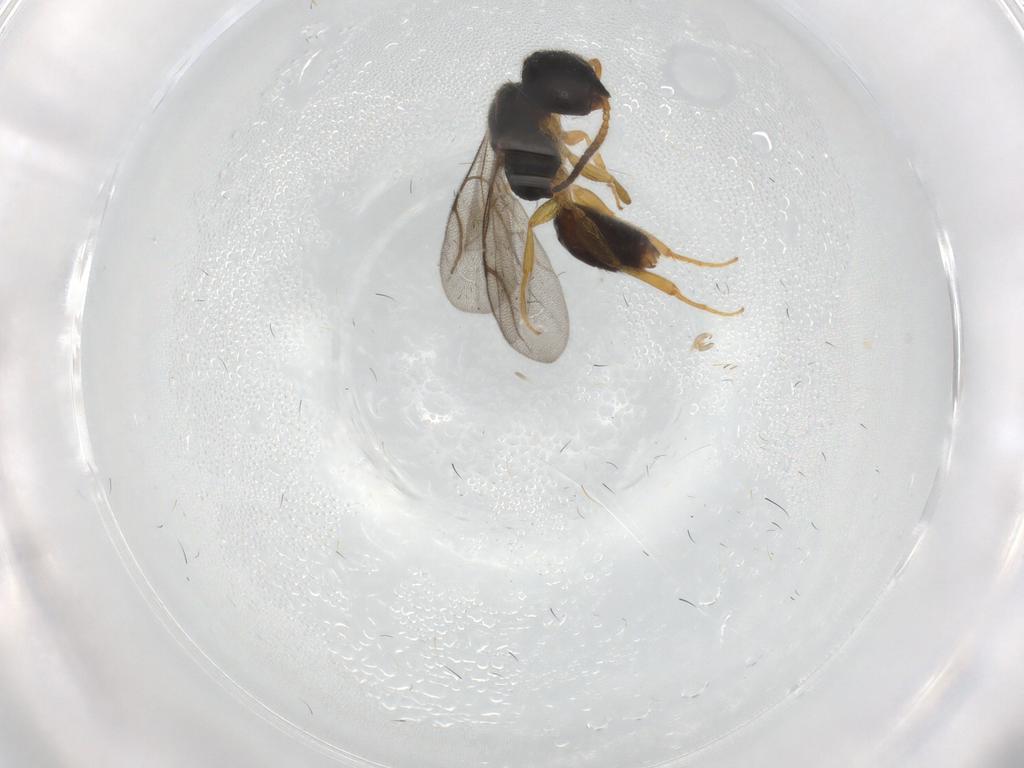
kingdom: Animalia
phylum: Arthropoda
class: Insecta
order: Hymenoptera
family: Bethylidae
